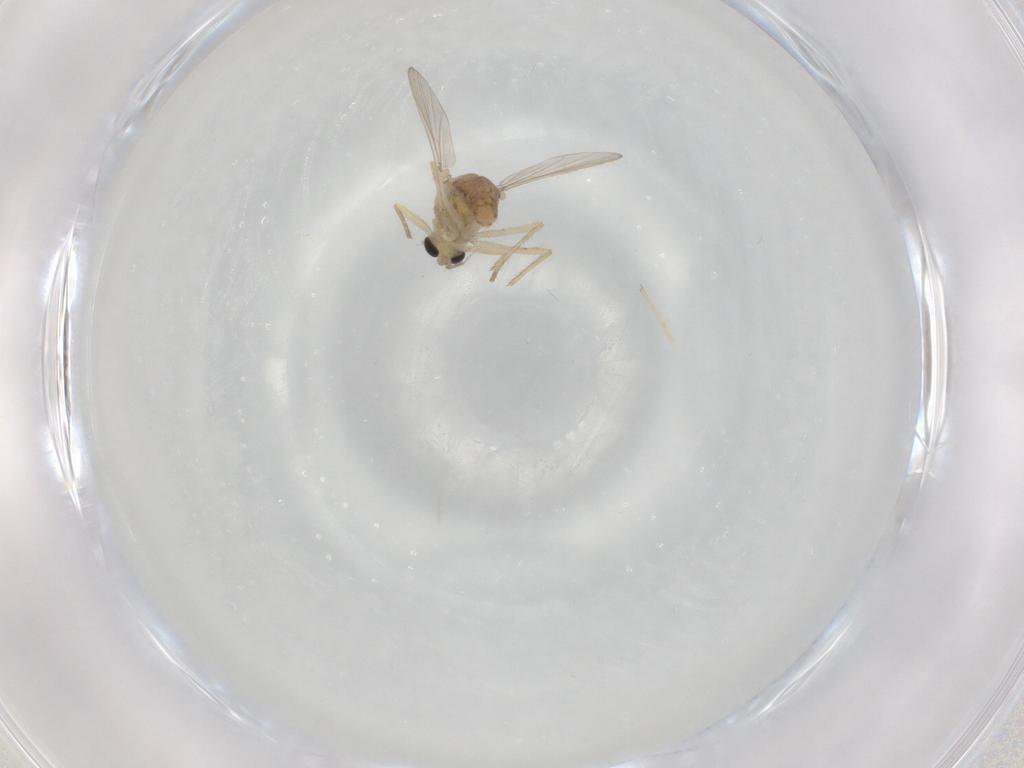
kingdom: Animalia
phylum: Arthropoda
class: Insecta
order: Diptera
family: Chironomidae
